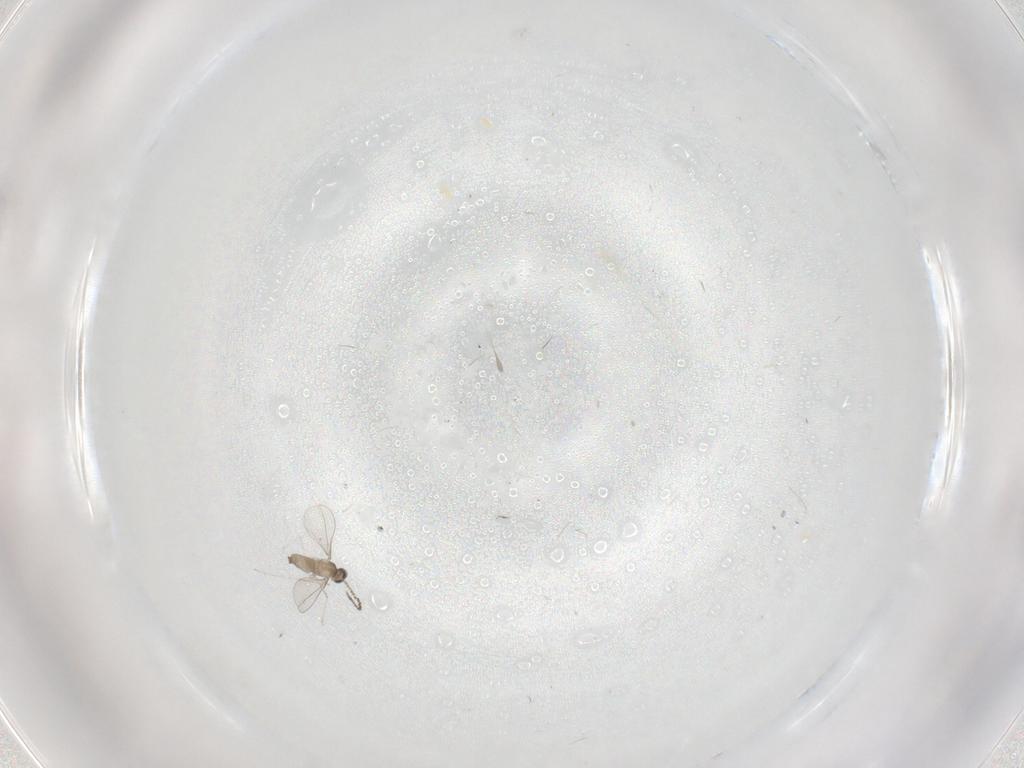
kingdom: Animalia
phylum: Arthropoda
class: Insecta
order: Diptera
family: Cecidomyiidae
